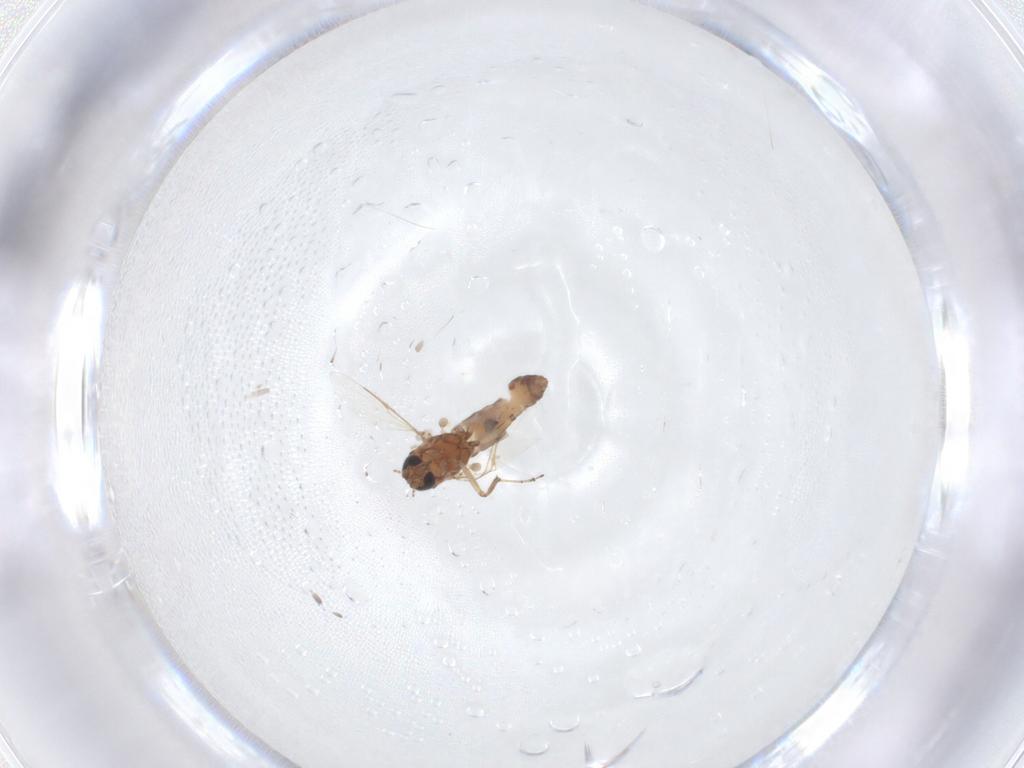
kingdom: Animalia
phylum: Arthropoda
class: Insecta
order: Diptera
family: Ceratopogonidae
